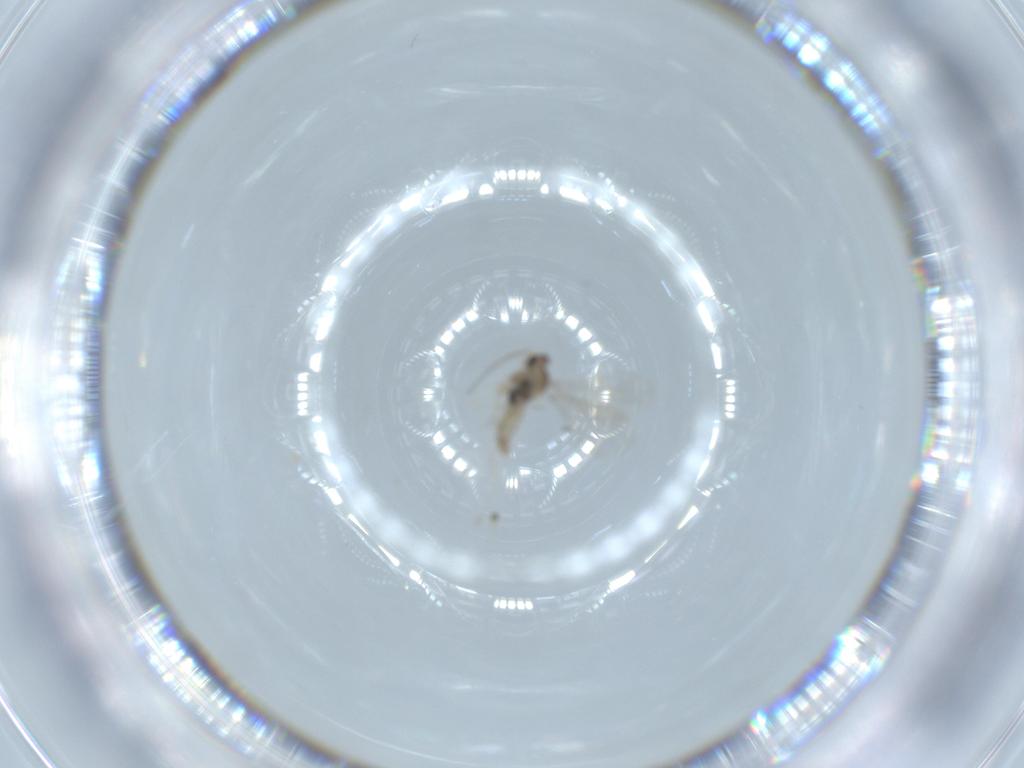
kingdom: Animalia
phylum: Arthropoda
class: Insecta
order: Diptera
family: Cecidomyiidae
